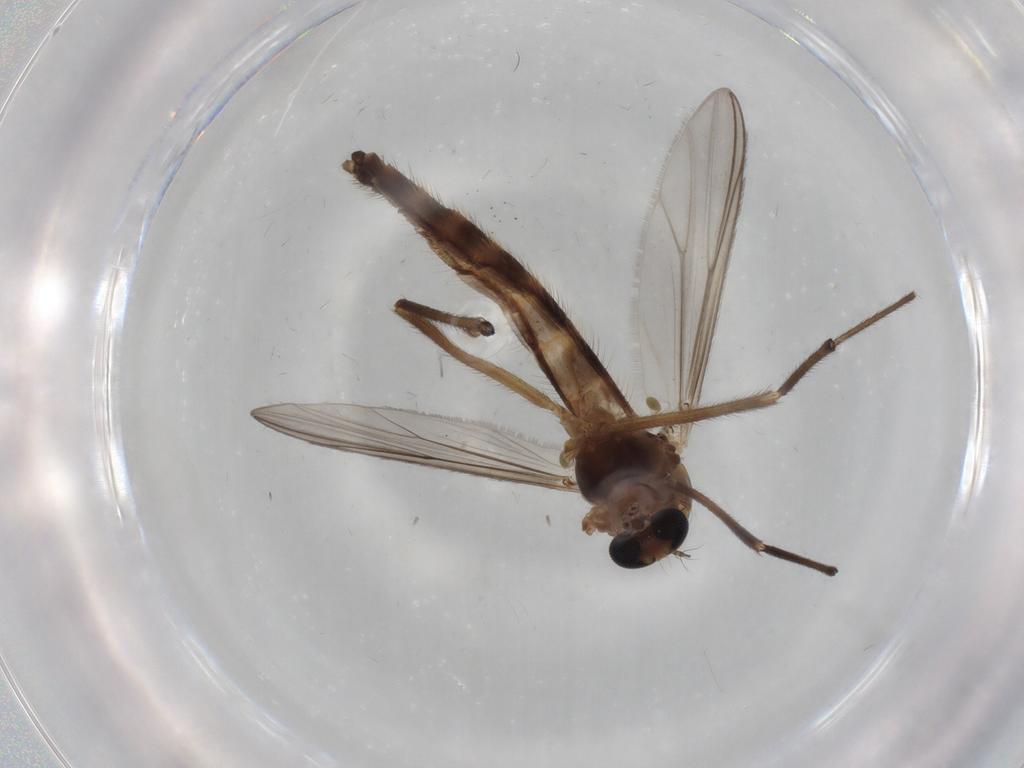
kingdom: Animalia
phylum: Arthropoda
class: Insecta
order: Diptera
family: Chironomidae
